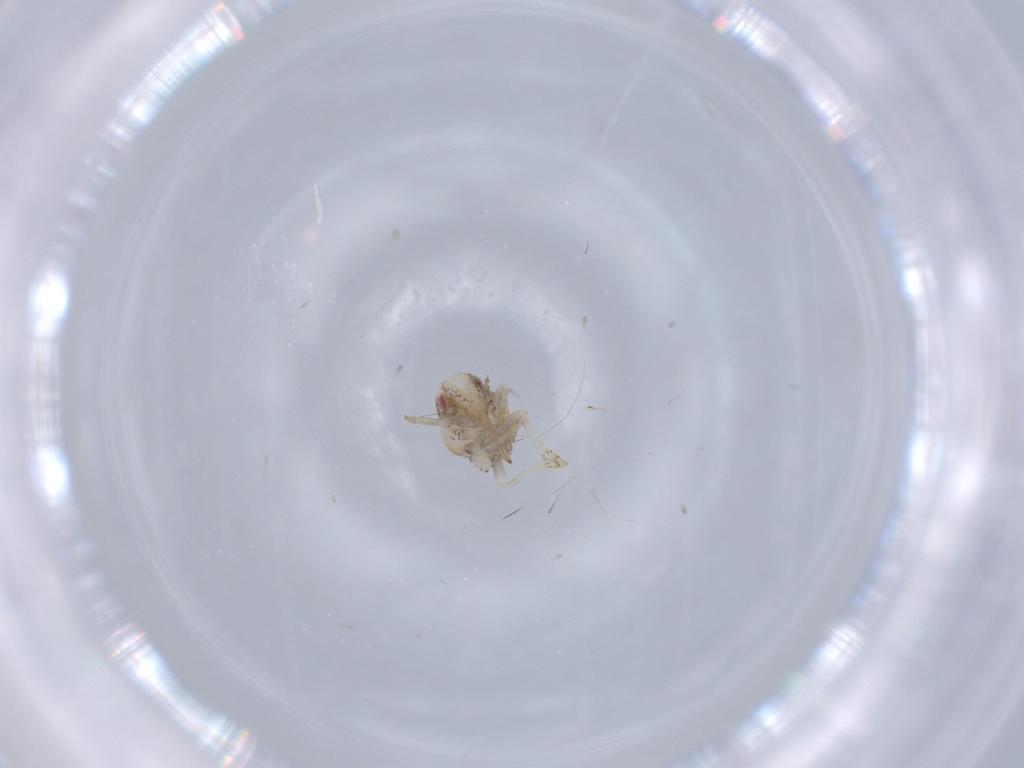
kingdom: Animalia
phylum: Arthropoda
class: Insecta
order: Hemiptera
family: Acanaloniidae
